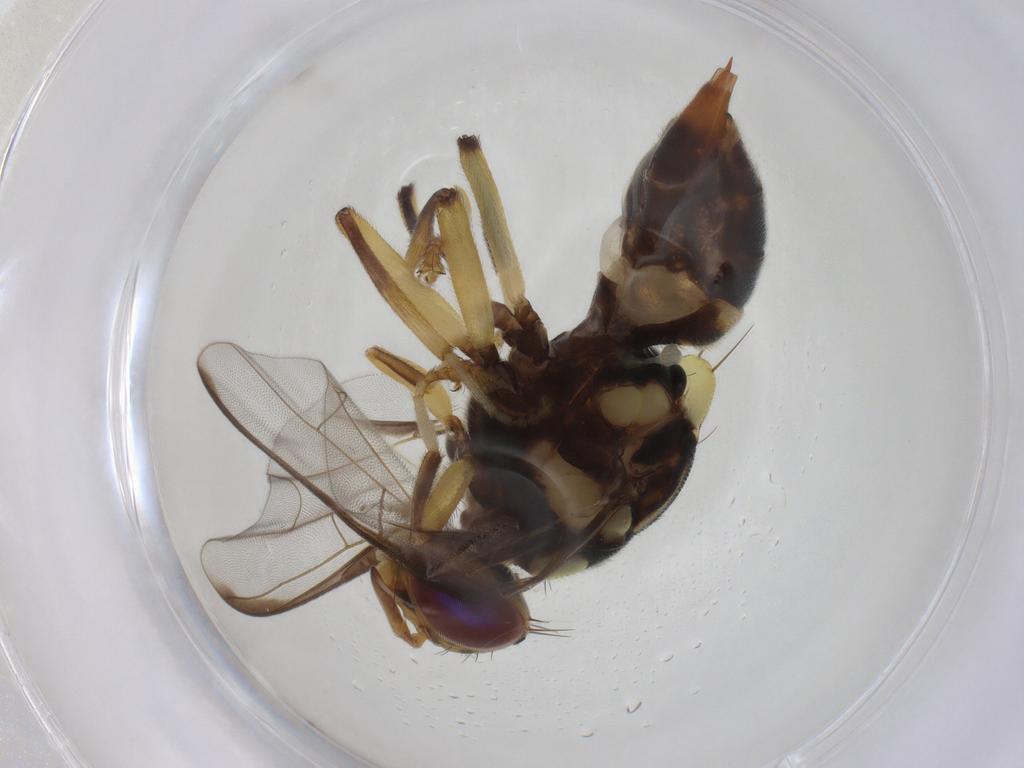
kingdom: Animalia
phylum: Arthropoda
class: Insecta
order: Diptera
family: Tephritidae
